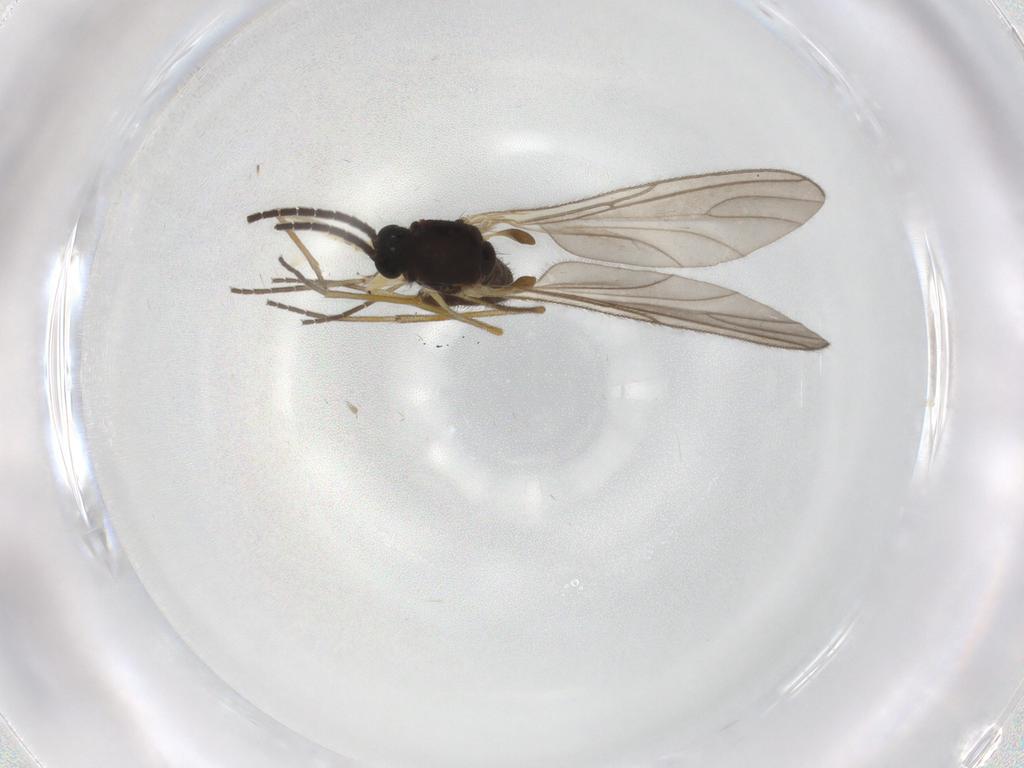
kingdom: Animalia
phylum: Arthropoda
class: Insecta
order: Diptera
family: Sciaridae
